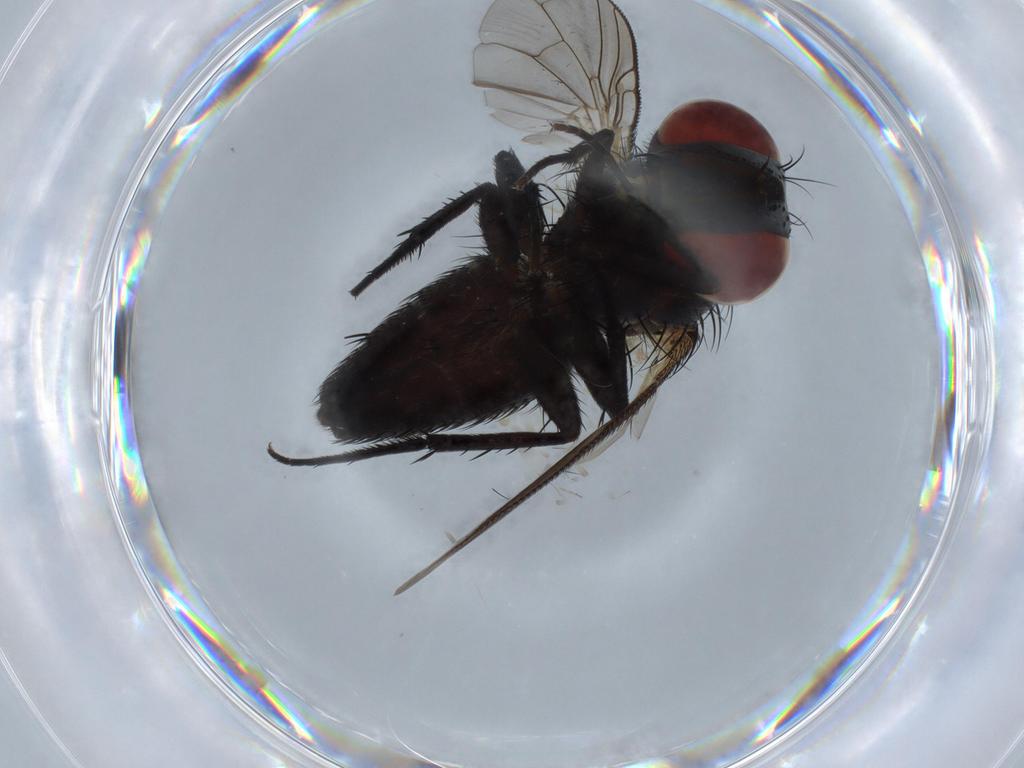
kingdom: Animalia
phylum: Arthropoda
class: Insecta
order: Diptera
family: Sarcophagidae
